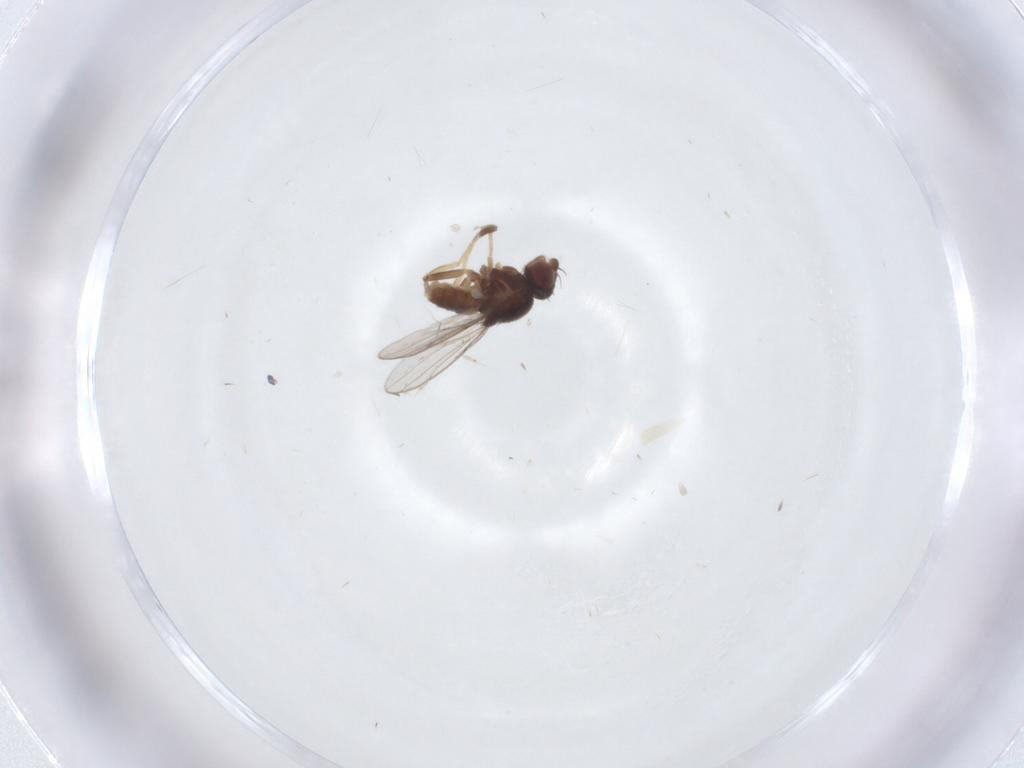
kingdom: Animalia
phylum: Arthropoda
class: Insecta
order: Diptera
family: Chloropidae
